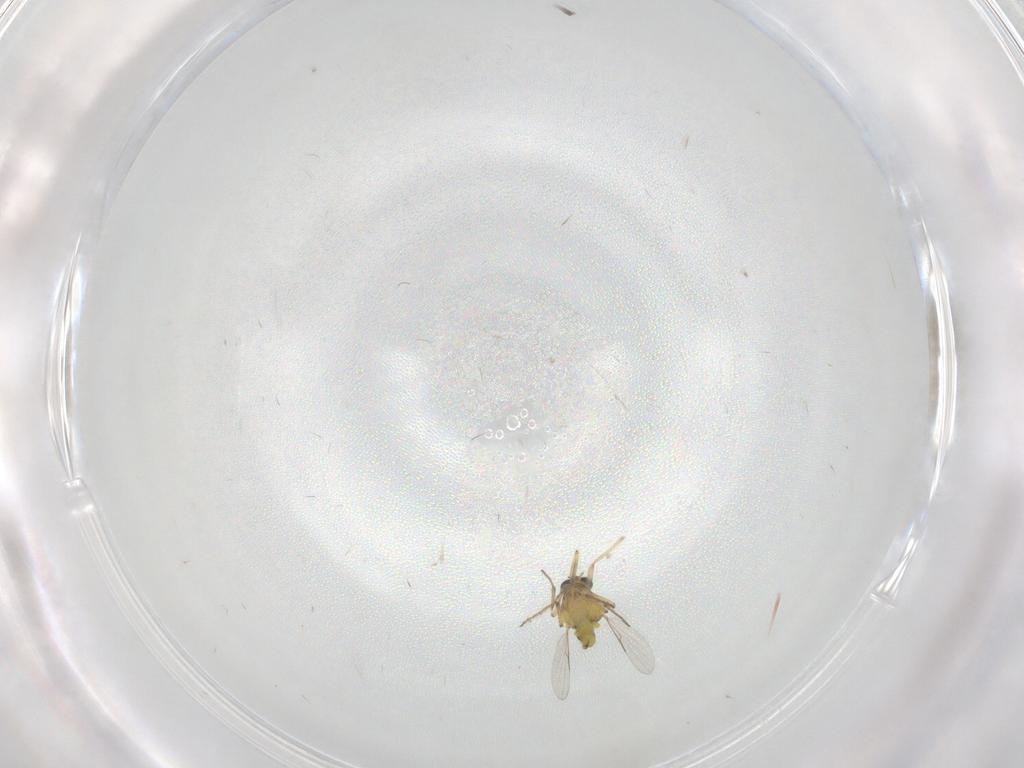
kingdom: Animalia
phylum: Arthropoda
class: Insecta
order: Diptera
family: Chironomidae
